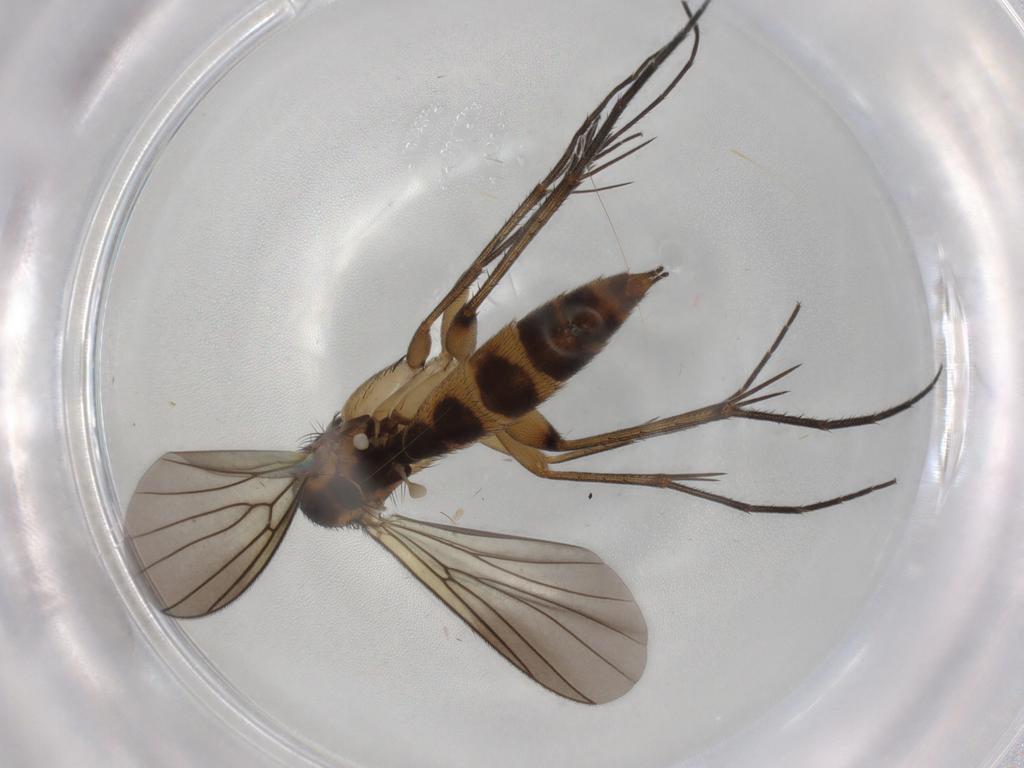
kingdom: Animalia
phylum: Arthropoda
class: Insecta
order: Diptera
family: Mycetophilidae
